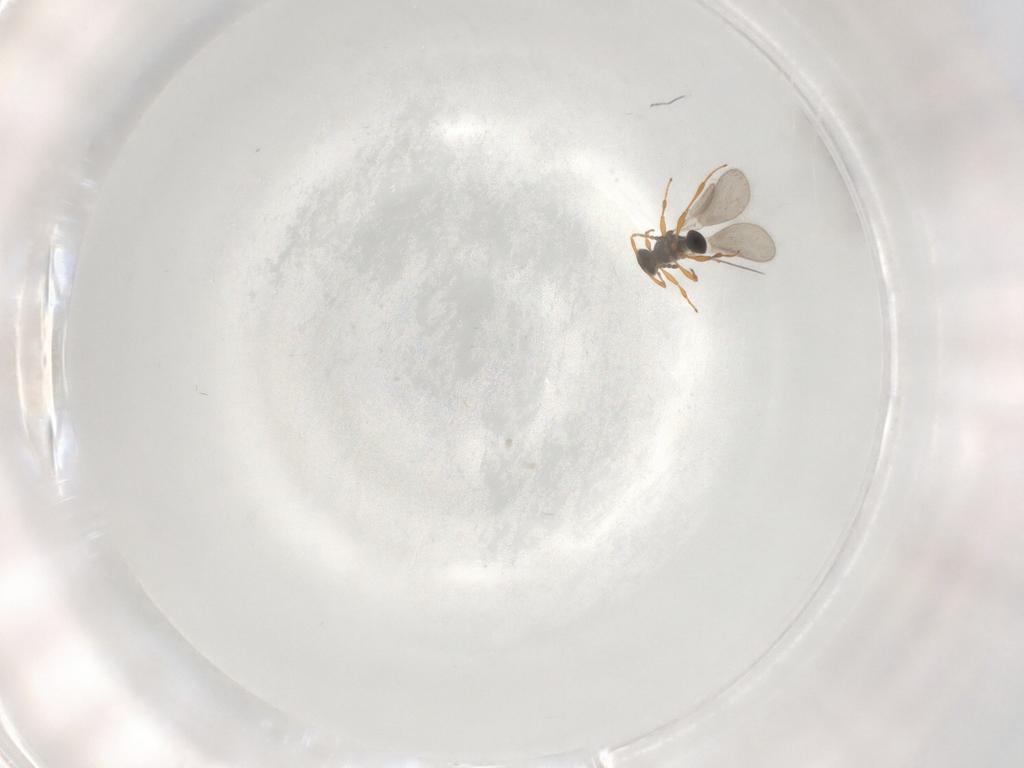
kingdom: Animalia
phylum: Arthropoda
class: Insecta
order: Hymenoptera
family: Platygastridae
